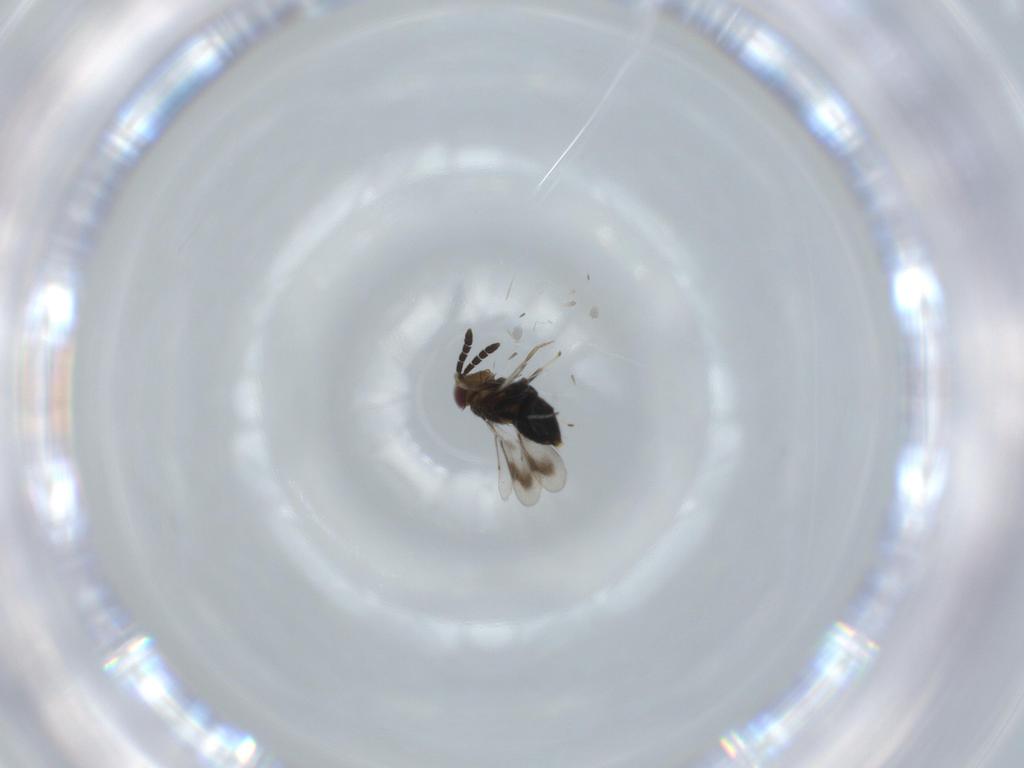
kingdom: Animalia
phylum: Arthropoda
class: Insecta
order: Hymenoptera
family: Aphelinidae
